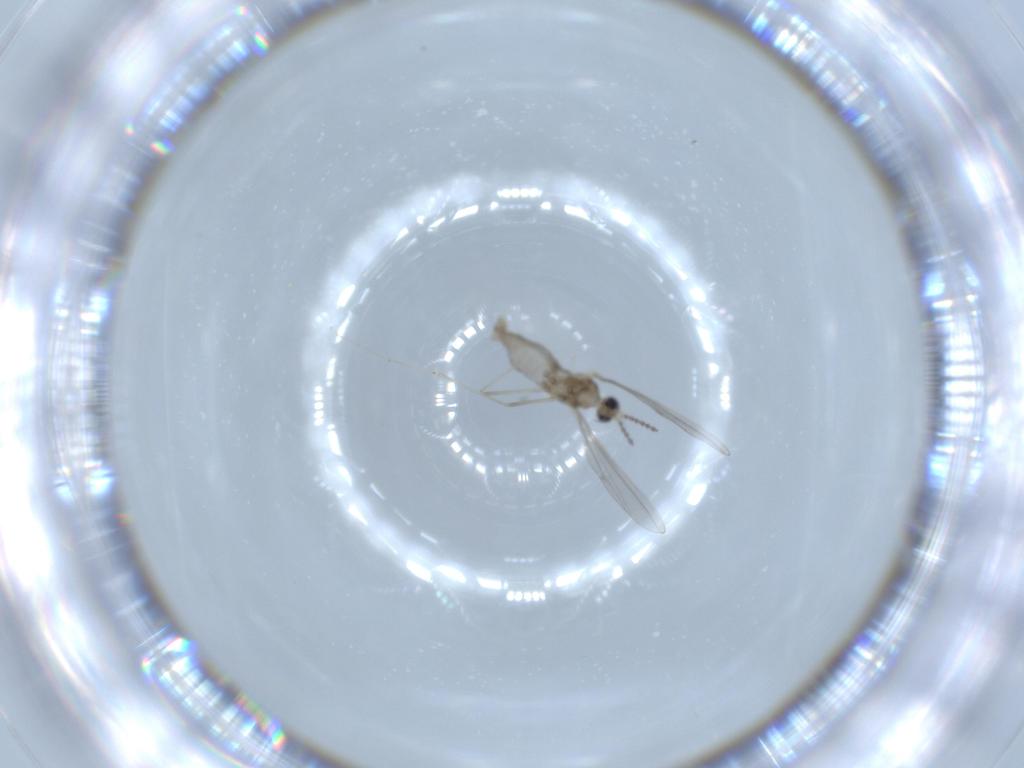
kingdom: Animalia
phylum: Arthropoda
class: Insecta
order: Diptera
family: Cecidomyiidae
